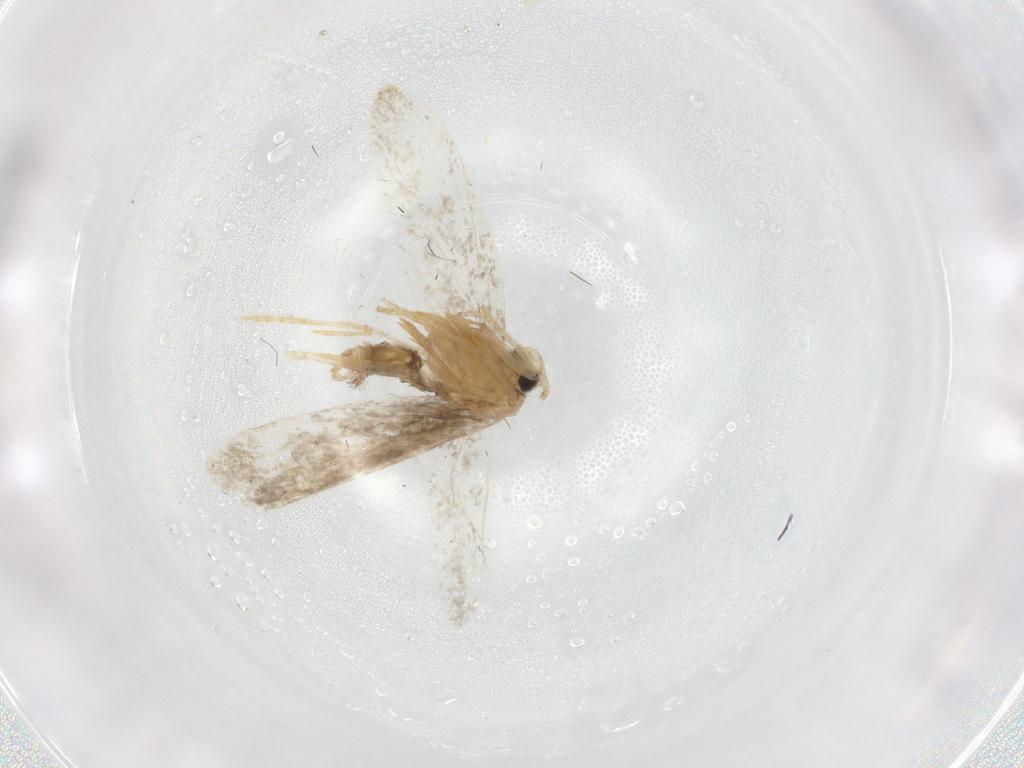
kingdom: Animalia
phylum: Arthropoda
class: Insecta
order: Lepidoptera
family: Psychidae
